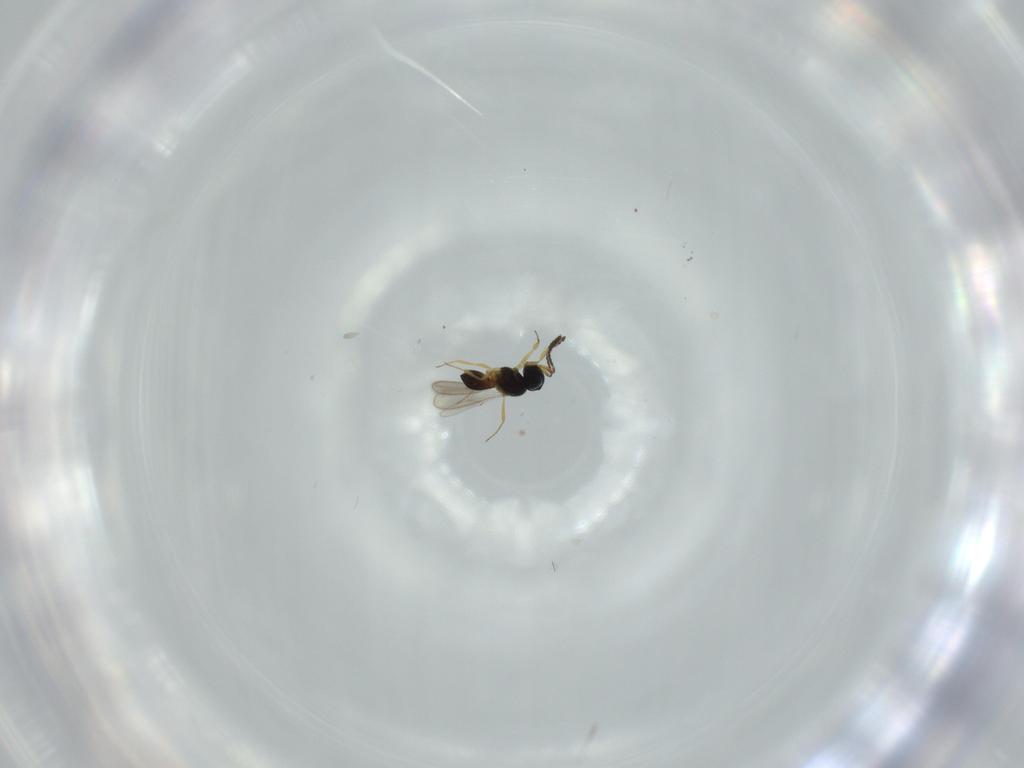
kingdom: Animalia
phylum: Arthropoda
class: Insecta
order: Hymenoptera
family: Scelionidae
